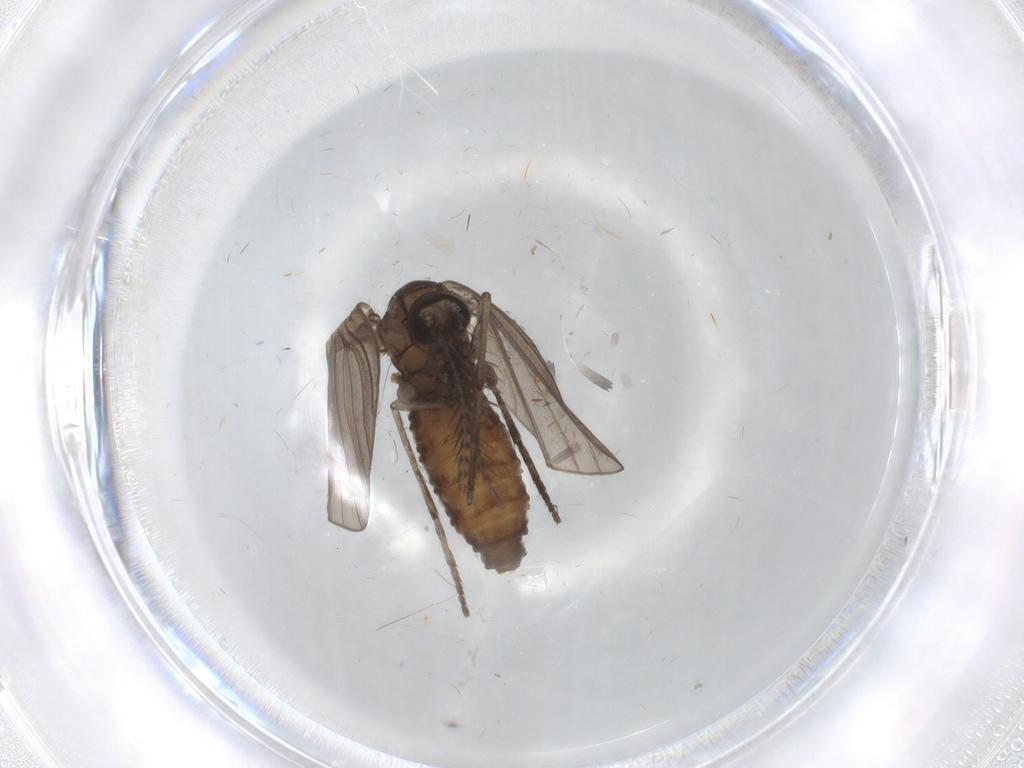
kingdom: Animalia
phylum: Arthropoda
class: Insecta
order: Diptera
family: Psychodidae
